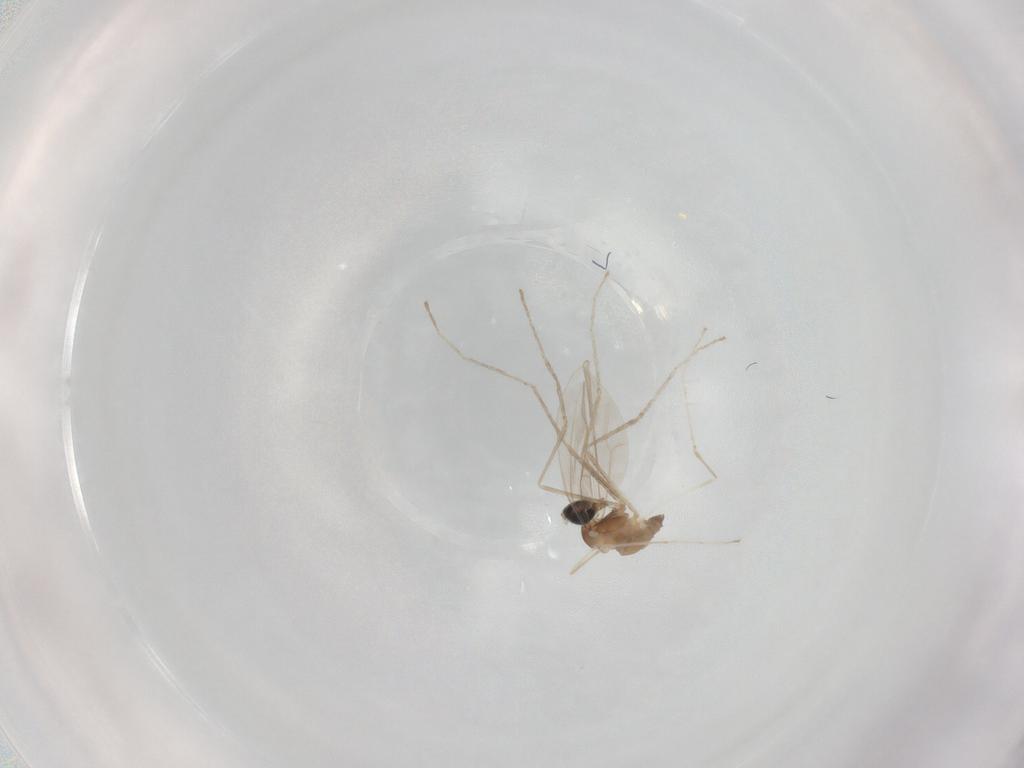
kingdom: Animalia
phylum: Arthropoda
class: Insecta
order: Diptera
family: Cecidomyiidae
